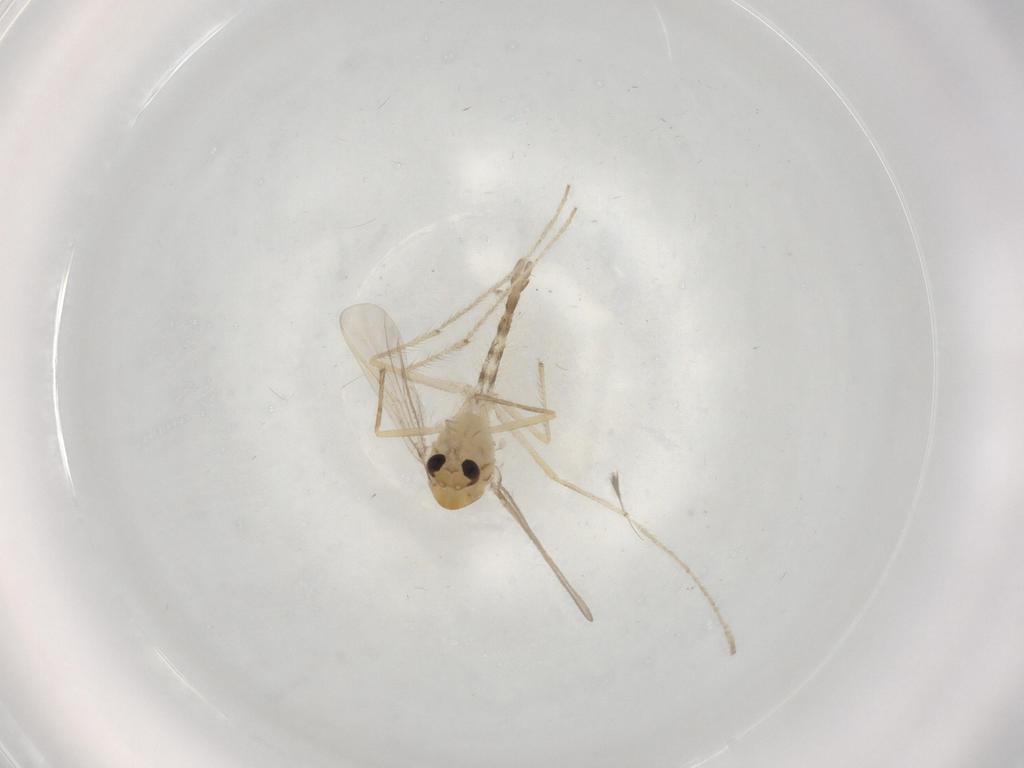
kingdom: Animalia
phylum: Arthropoda
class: Insecta
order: Diptera
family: Chironomidae
